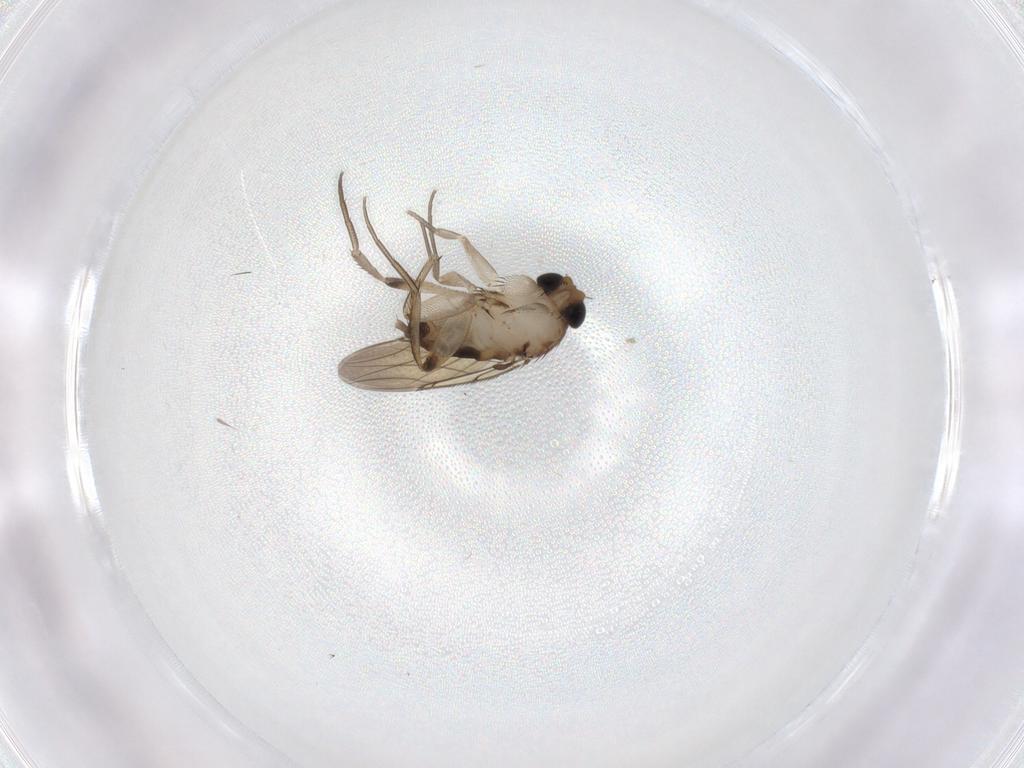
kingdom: Animalia
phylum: Arthropoda
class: Insecta
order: Diptera
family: Phoridae
